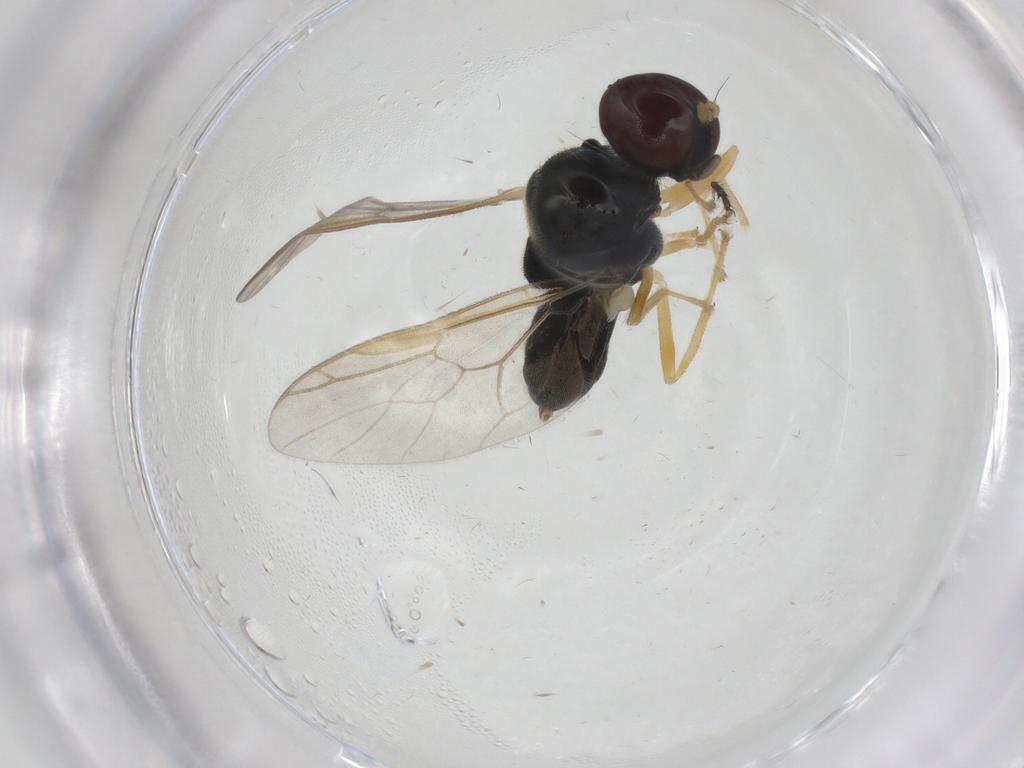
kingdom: Animalia
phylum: Arthropoda
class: Insecta
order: Diptera
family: Stratiomyidae
